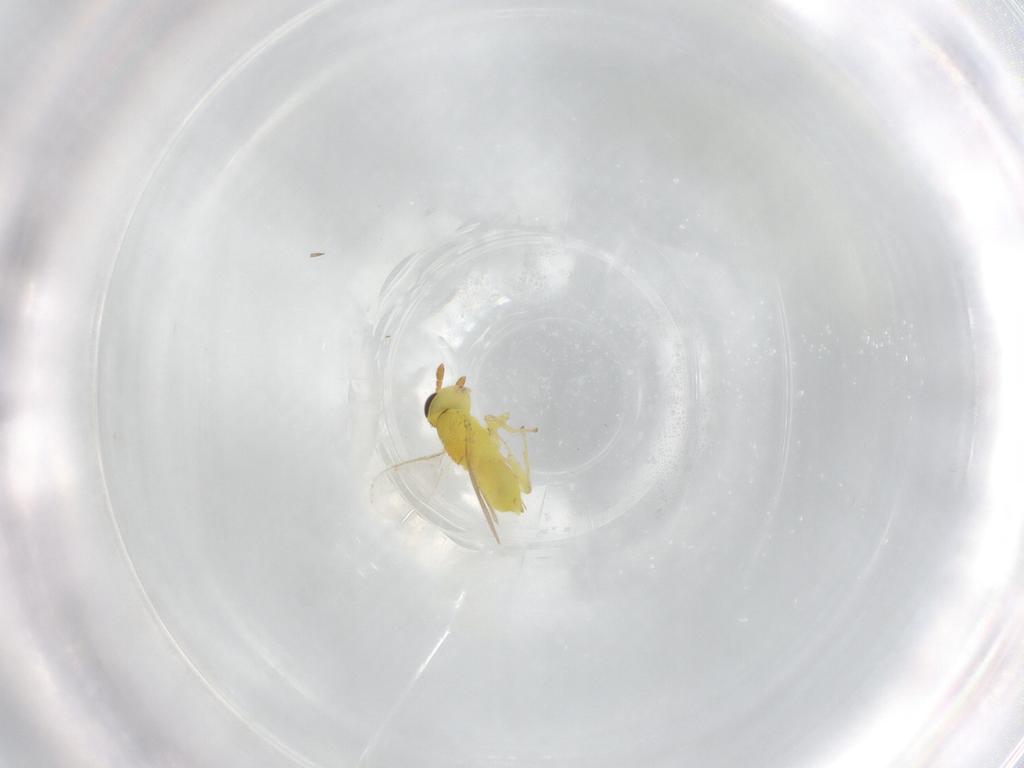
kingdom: Animalia
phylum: Arthropoda
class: Insecta
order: Hymenoptera
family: Aphelinidae
